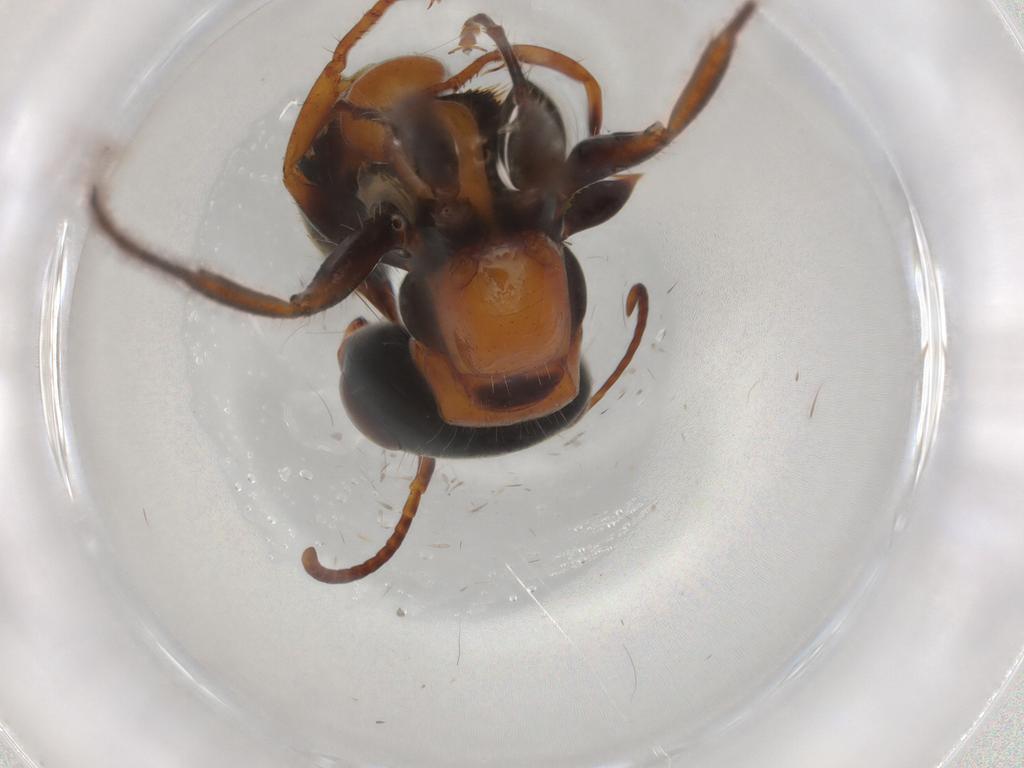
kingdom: Animalia
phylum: Arthropoda
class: Insecta
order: Hymenoptera
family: Formicidae
